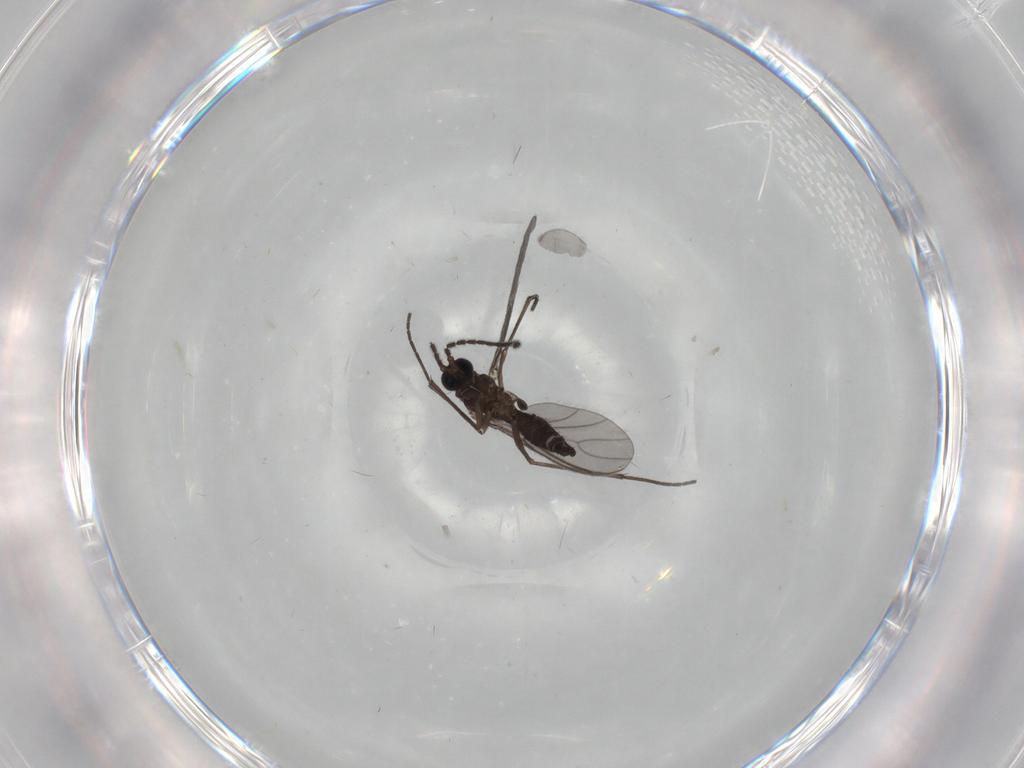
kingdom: Animalia
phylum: Arthropoda
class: Insecta
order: Diptera
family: Sciaridae
